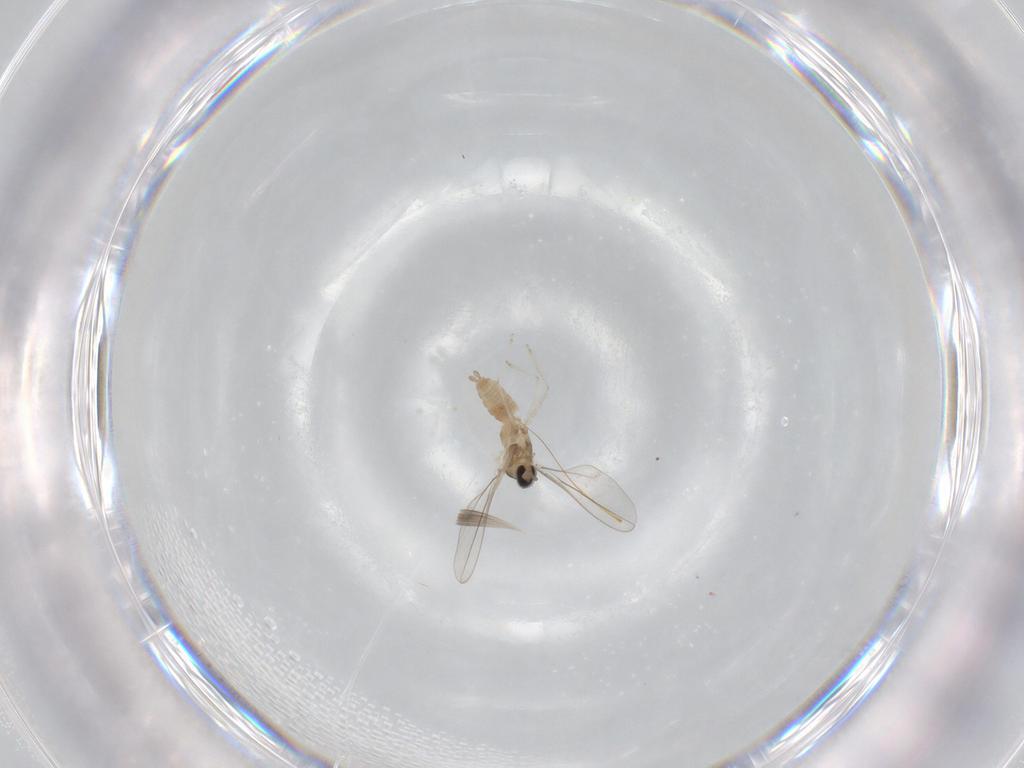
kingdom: Animalia
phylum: Arthropoda
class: Insecta
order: Diptera
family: Cecidomyiidae
